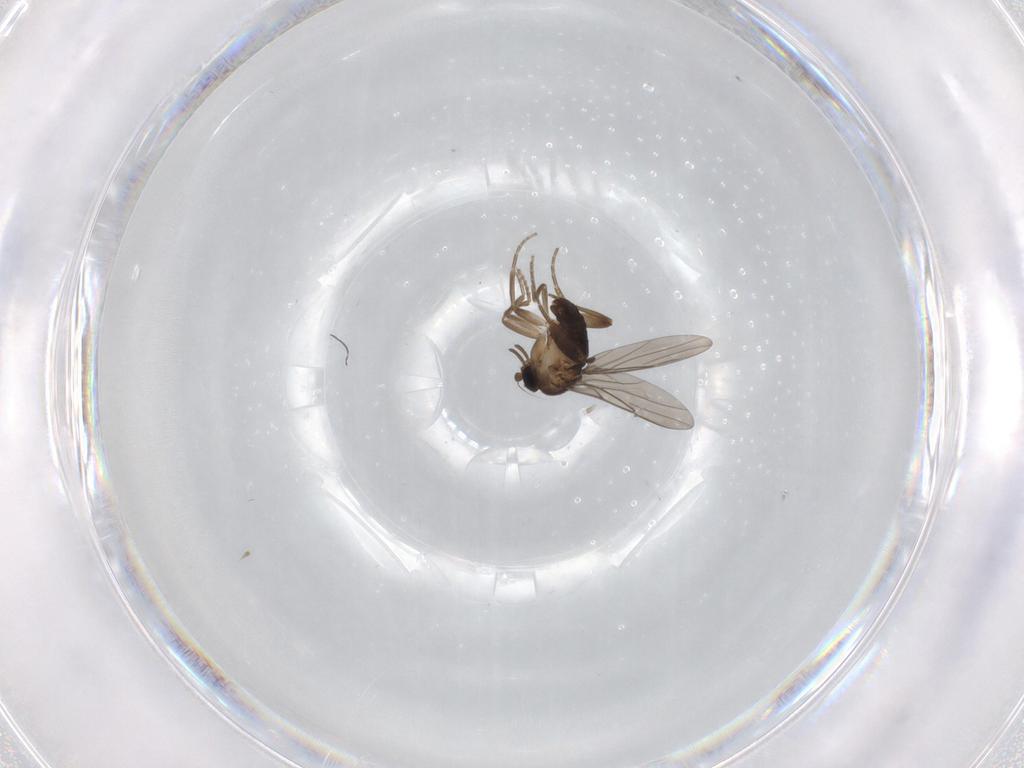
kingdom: Animalia
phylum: Arthropoda
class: Insecta
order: Diptera
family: Phoridae
